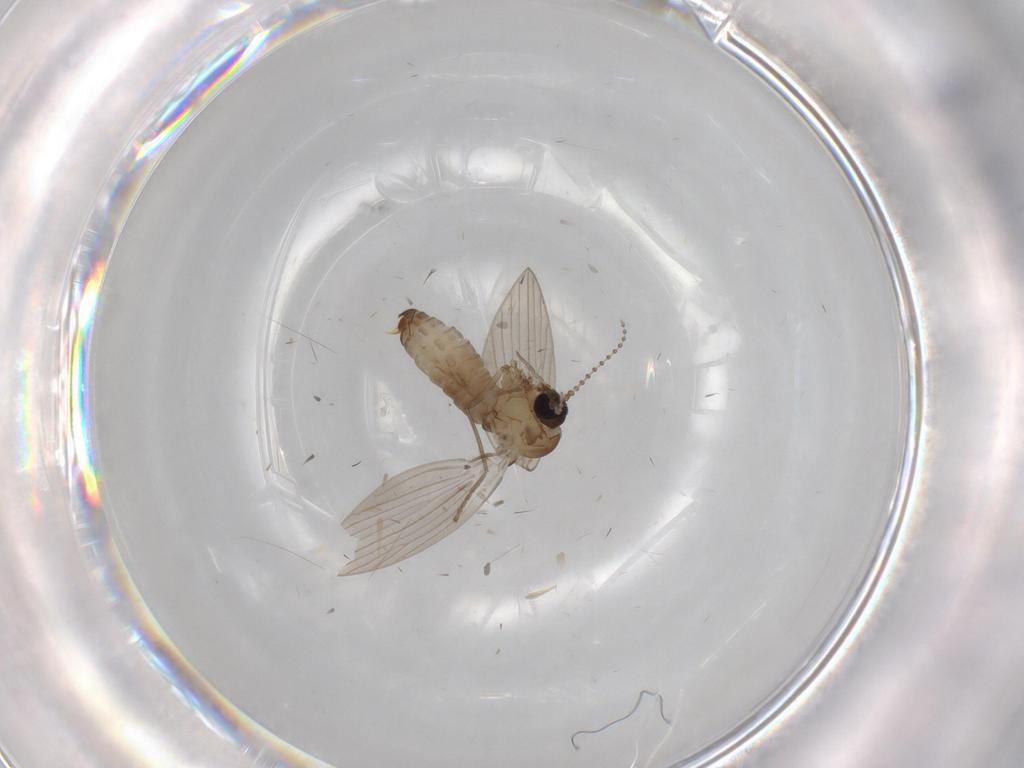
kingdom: Animalia
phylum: Arthropoda
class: Insecta
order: Diptera
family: Psychodidae
